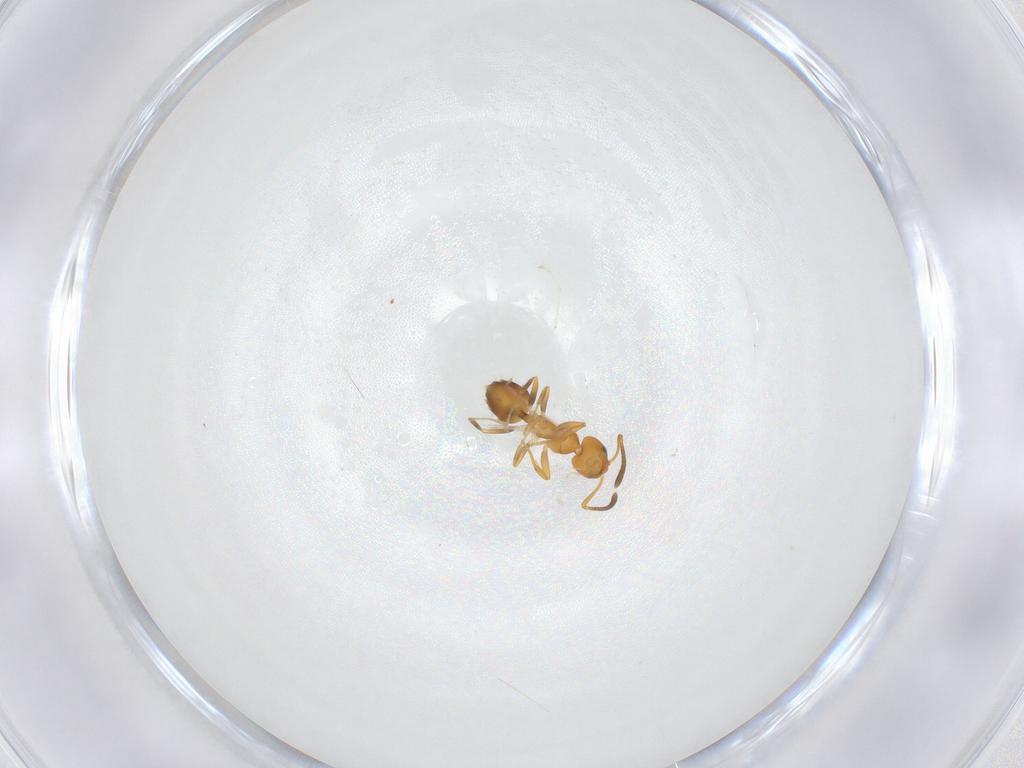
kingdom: Animalia
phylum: Arthropoda
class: Insecta
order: Hymenoptera
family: Formicidae
